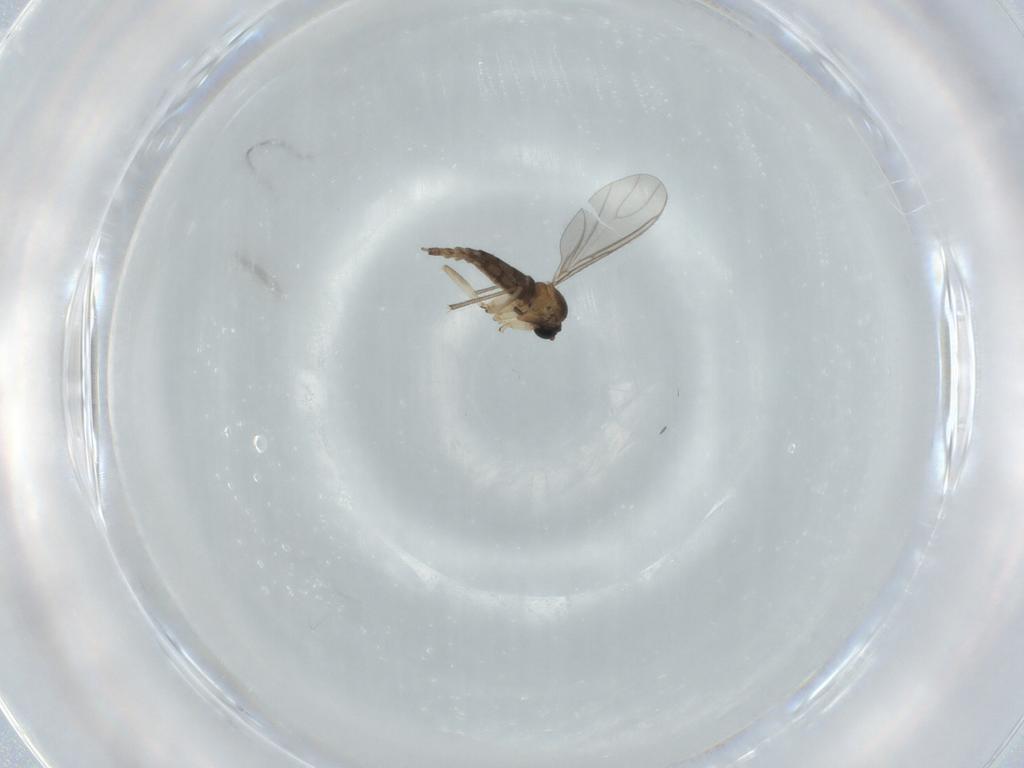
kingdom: Animalia
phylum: Arthropoda
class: Insecta
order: Diptera
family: Sciaridae
